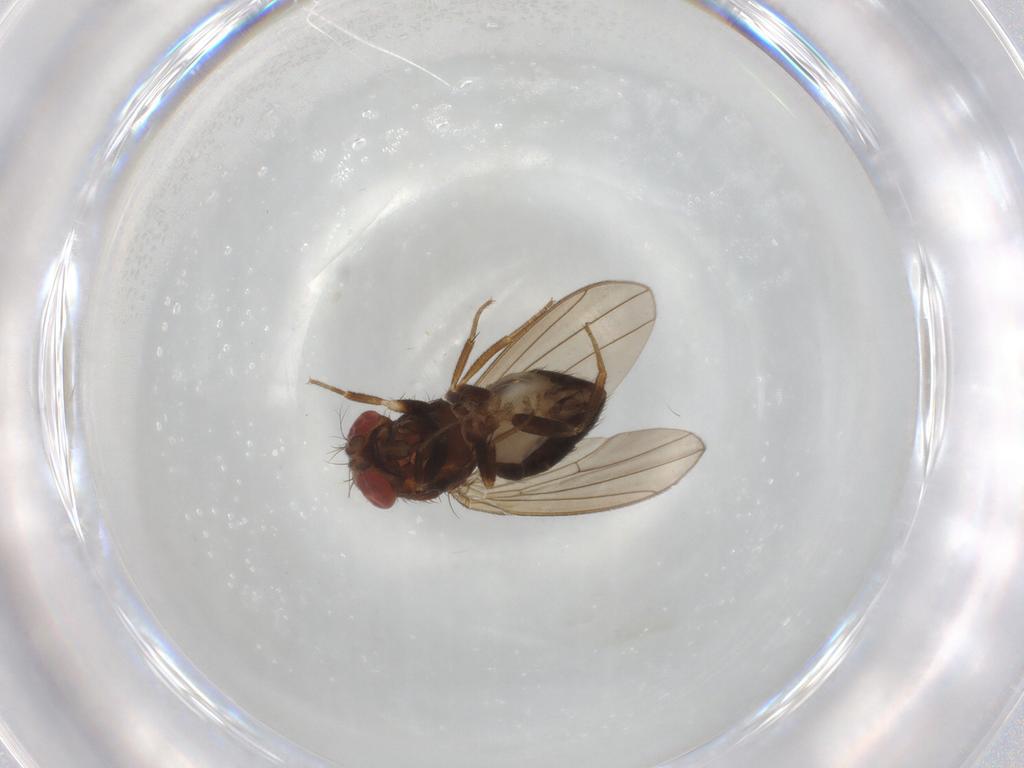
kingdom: Animalia
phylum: Arthropoda
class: Insecta
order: Diptera
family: Drosophilidae
